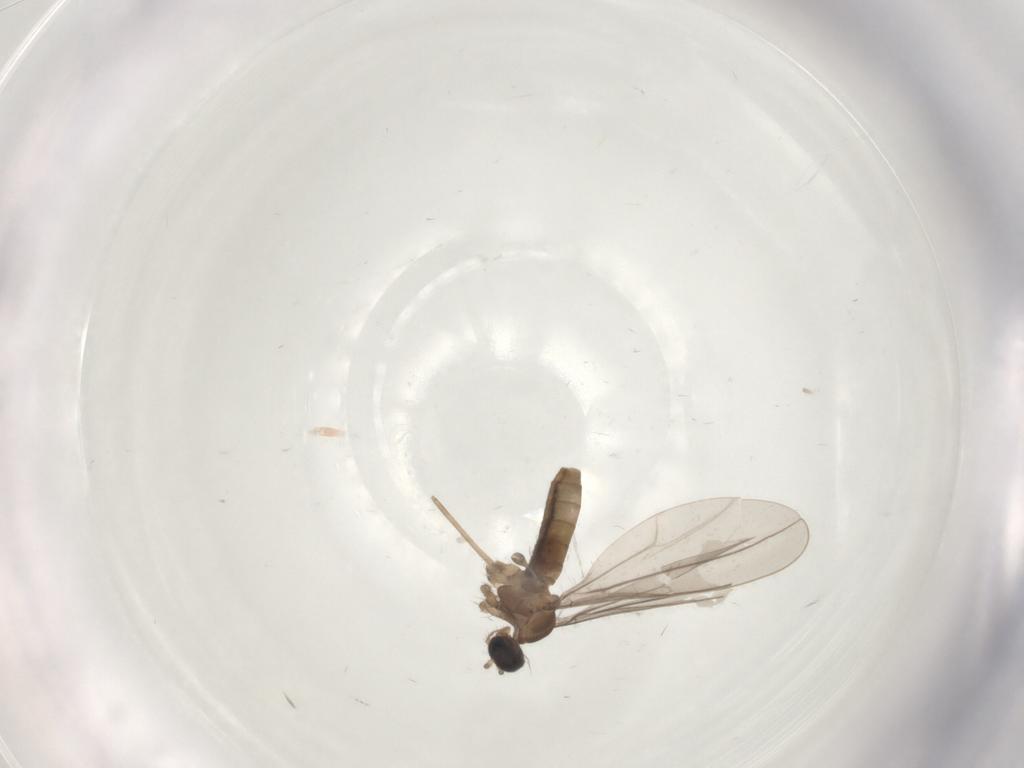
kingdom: Animalia
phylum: Arthropoda
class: Insecta
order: Diptera
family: Cecidomyiidae
